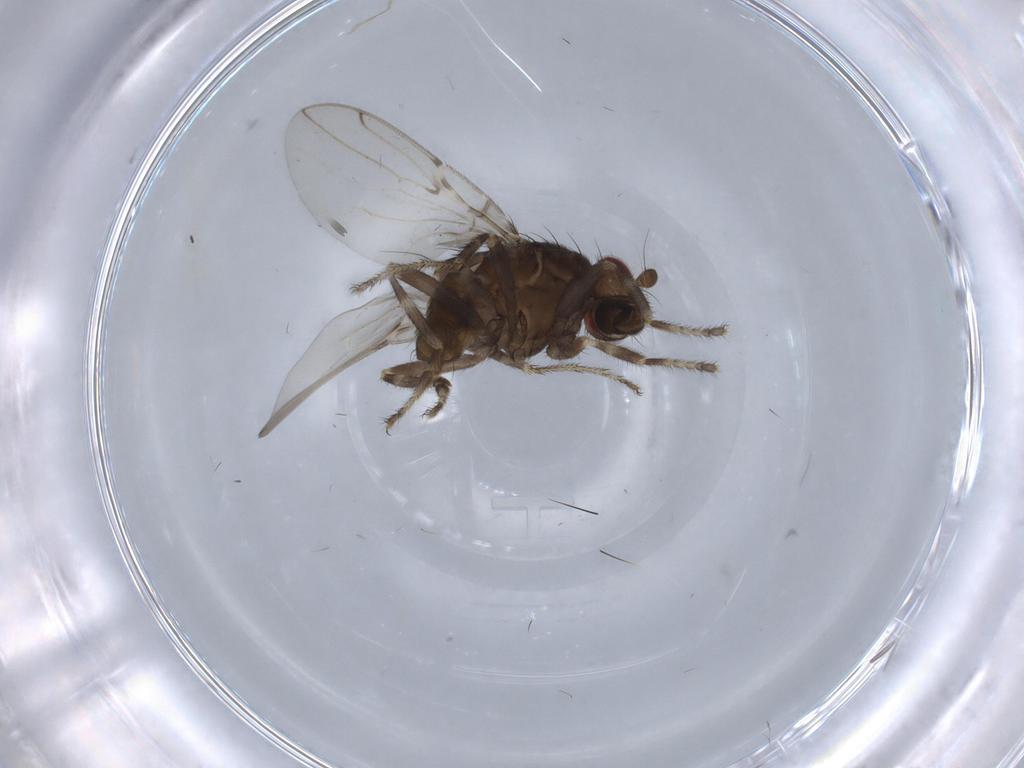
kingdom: Animalia
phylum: Arthropoda
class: Insecta
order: Diptera
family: Sphaeroceridae
